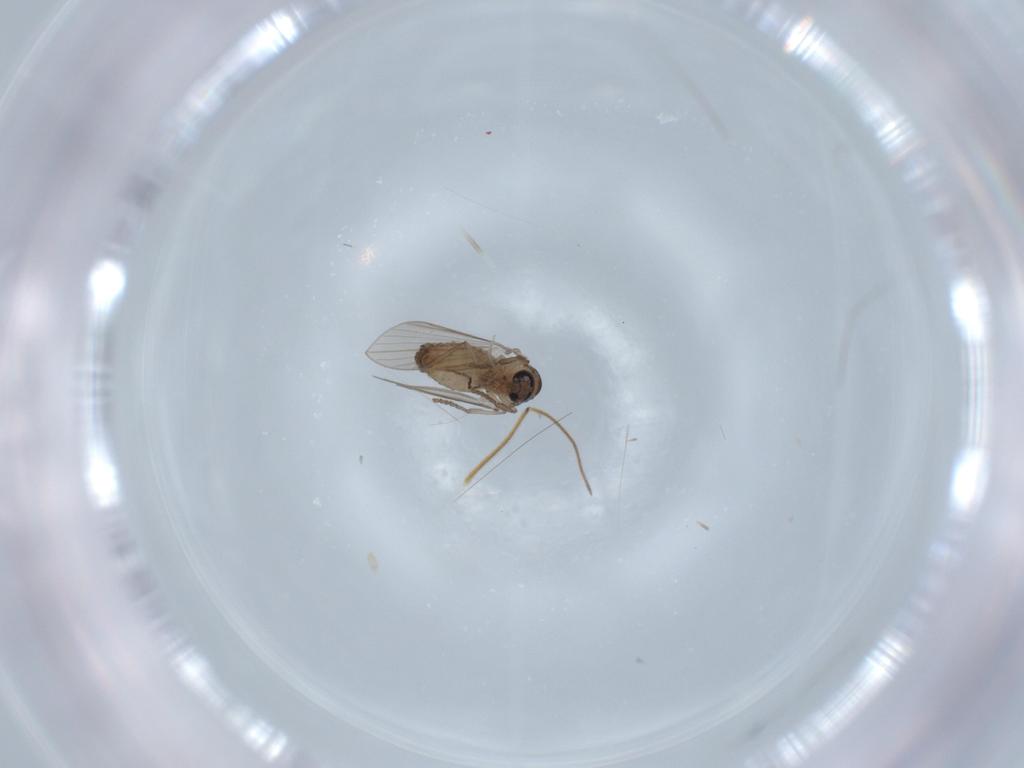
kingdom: Animalia
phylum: Arthropoda
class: Insecta
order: Diptera
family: Psychodidae
